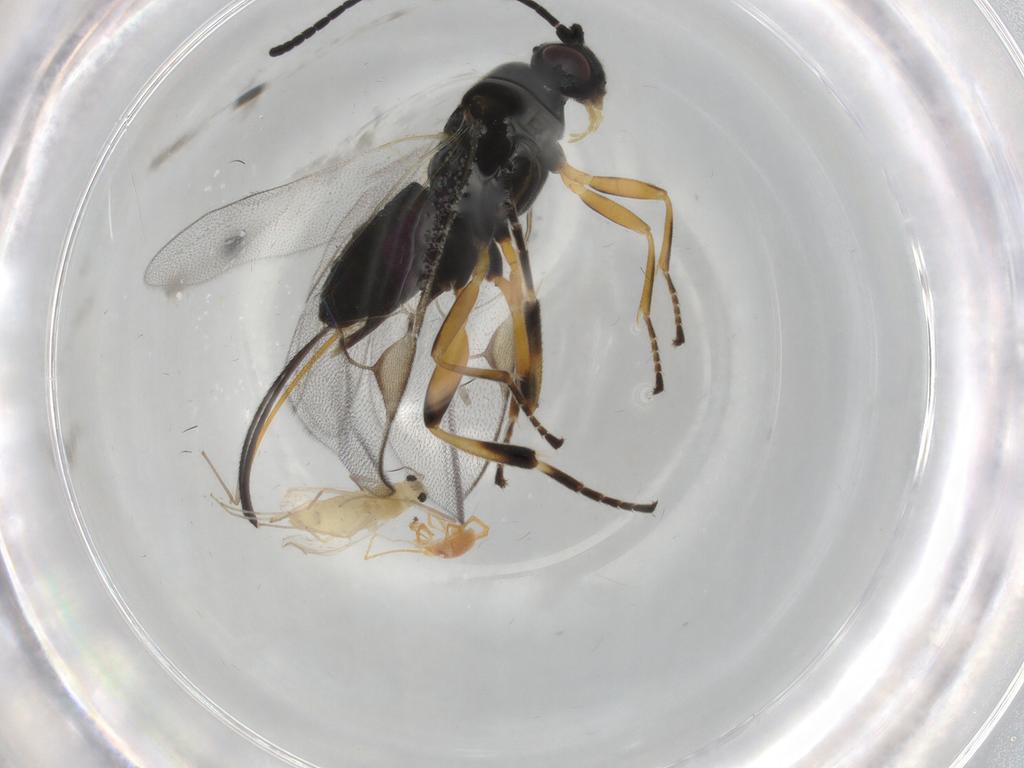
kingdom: Animalia
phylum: Arthropoda
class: Insecta
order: Diptera
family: Chironomidae
